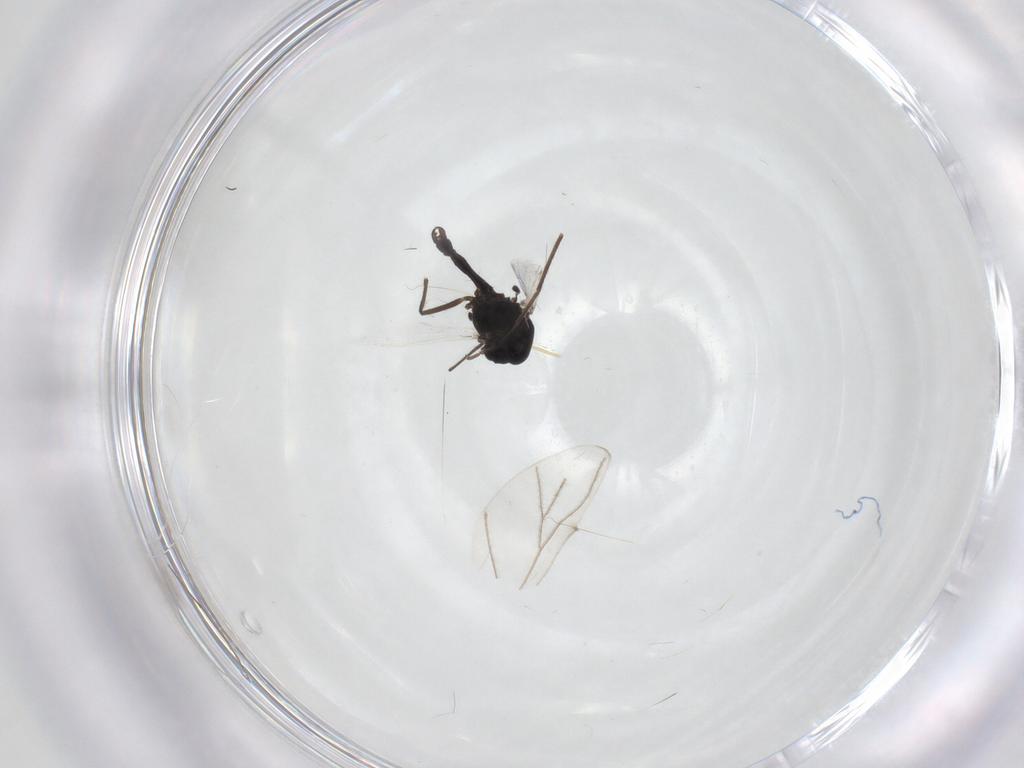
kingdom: Animalia
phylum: Arthropoda
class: Insecta
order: Diptera
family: Chironomidae
